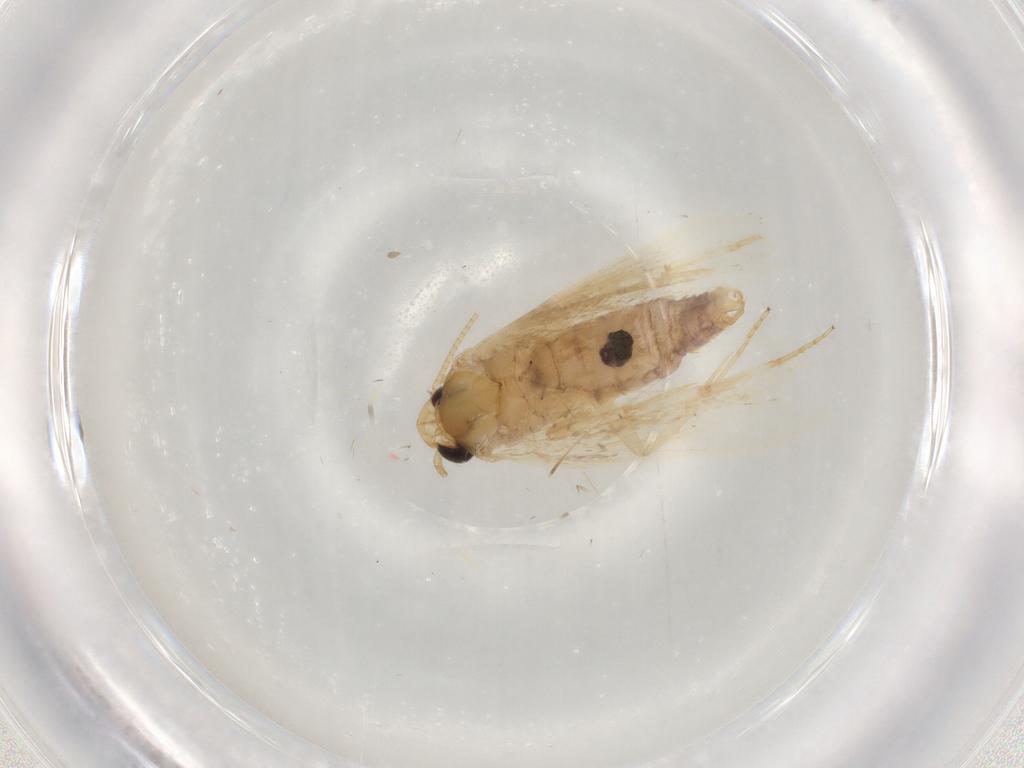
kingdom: Animalia
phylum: Arthropoda
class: Insecta
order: Lepidoptera
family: Depressariidae
